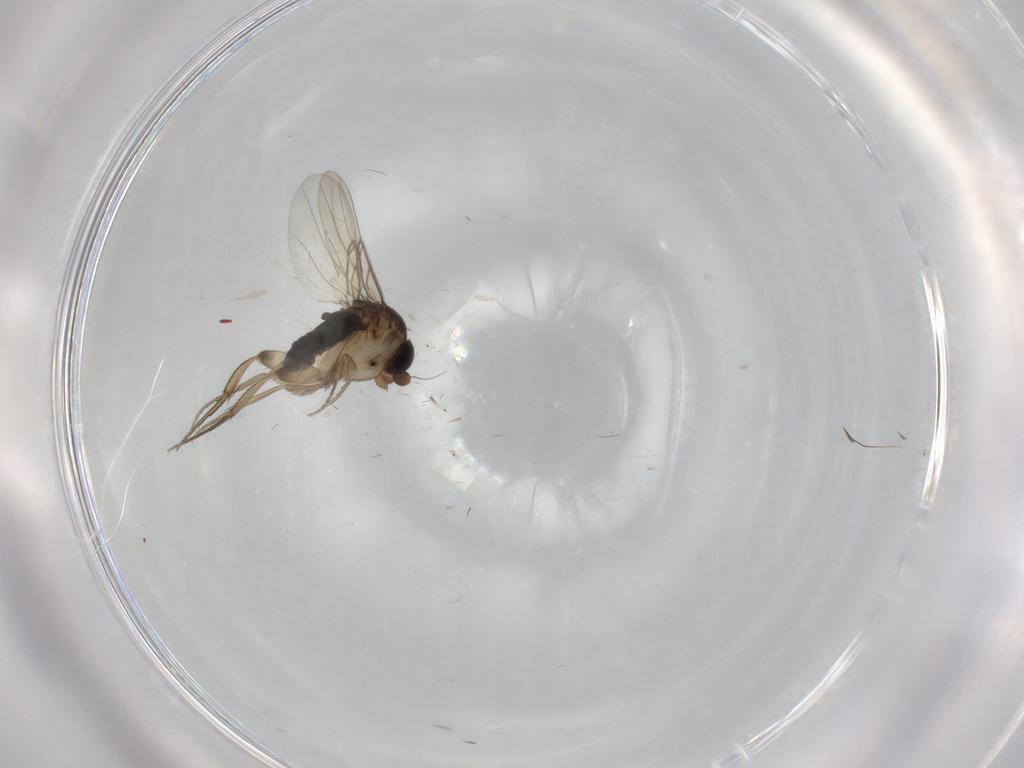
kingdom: Animalia
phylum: Arthropoda
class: Insecta
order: Diptera
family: Phoridae
